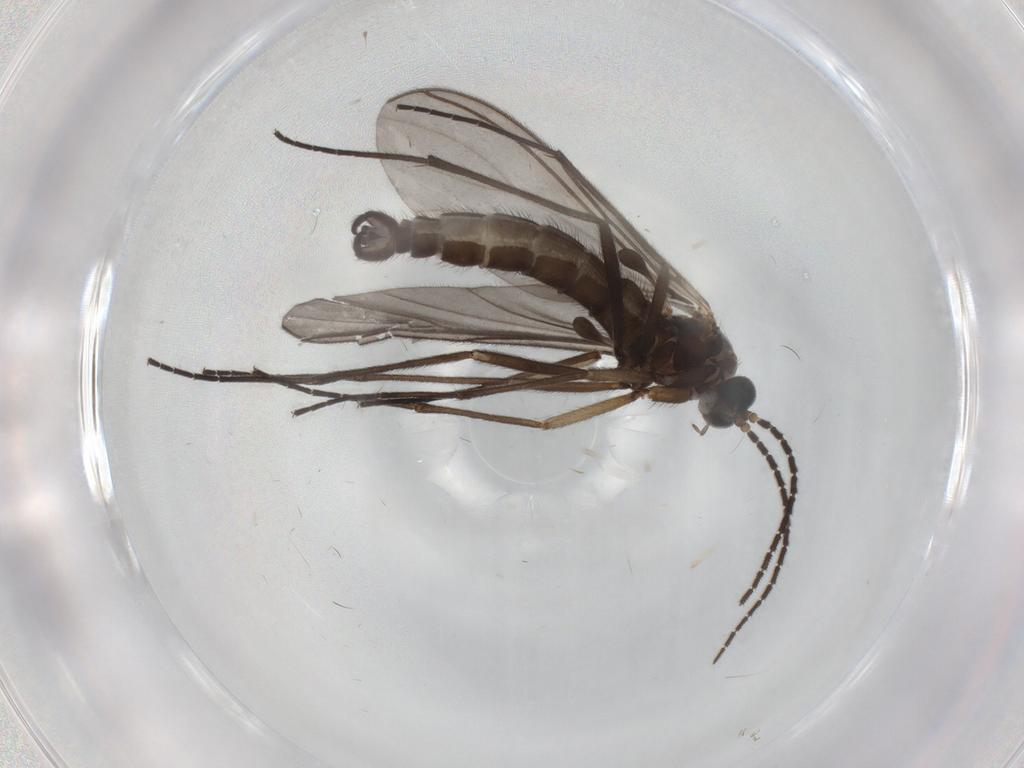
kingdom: Animalia
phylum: Arthropoda
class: Insecta
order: Diptera
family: Sciaridae
